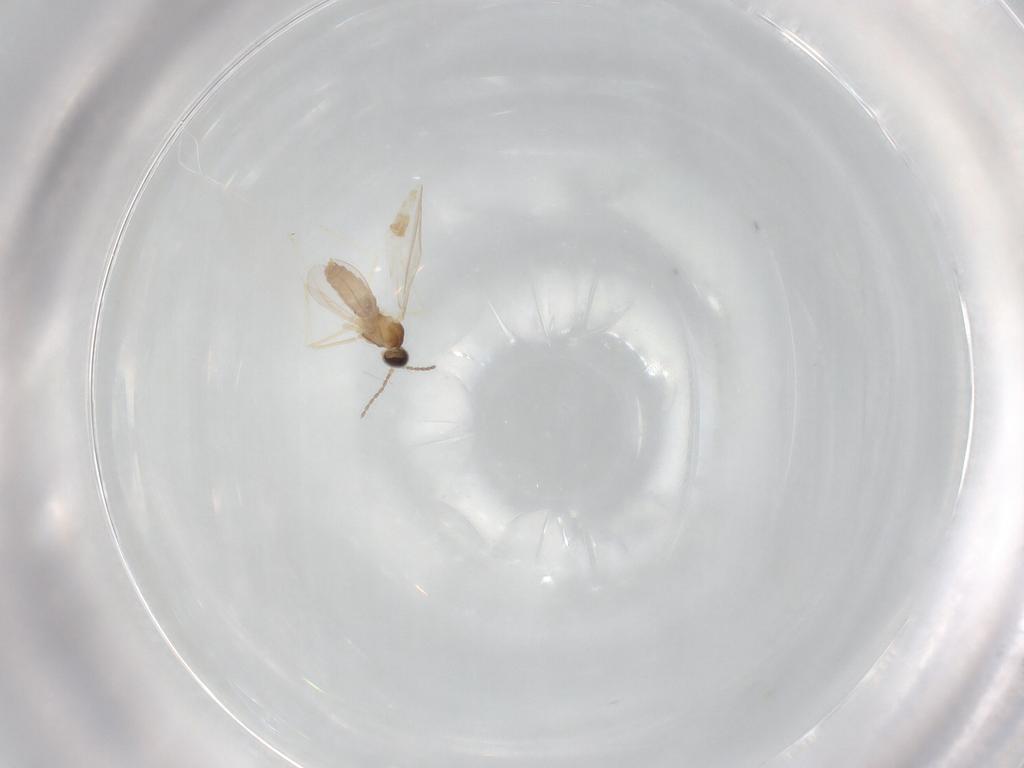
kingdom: Animalia
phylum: Arthropoda
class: Insecta
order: Diptera
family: Cecidomyiidae
